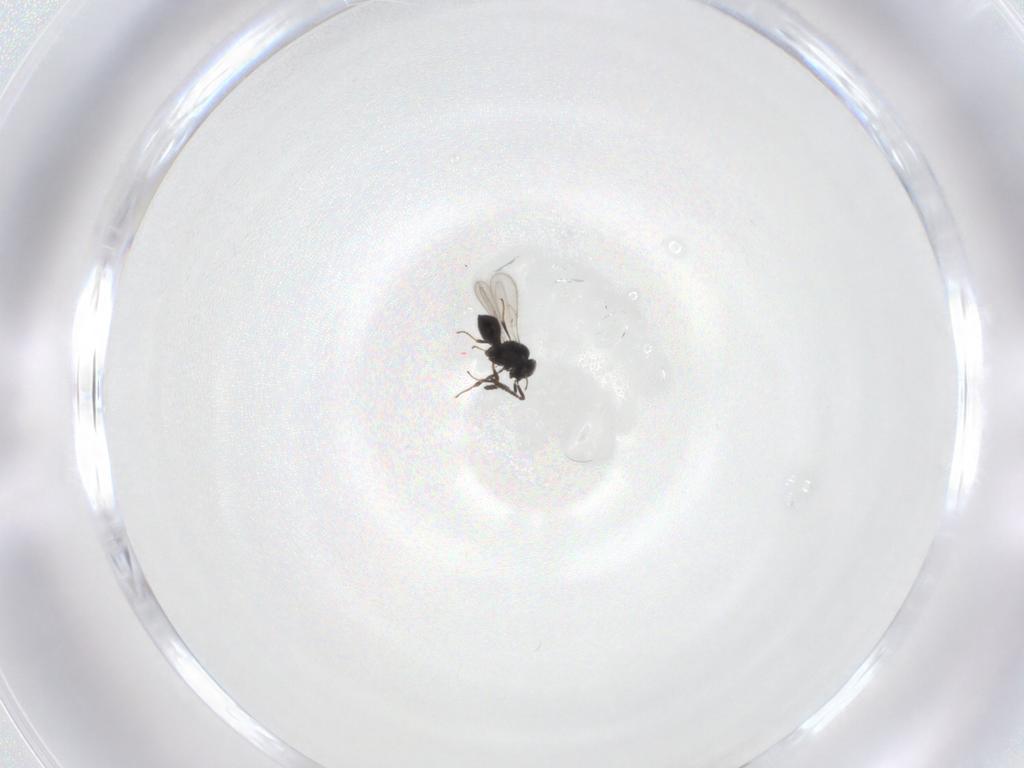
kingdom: Animalia
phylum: Arthropoda
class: Insecta
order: Hymenoptera
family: Scelionidae
